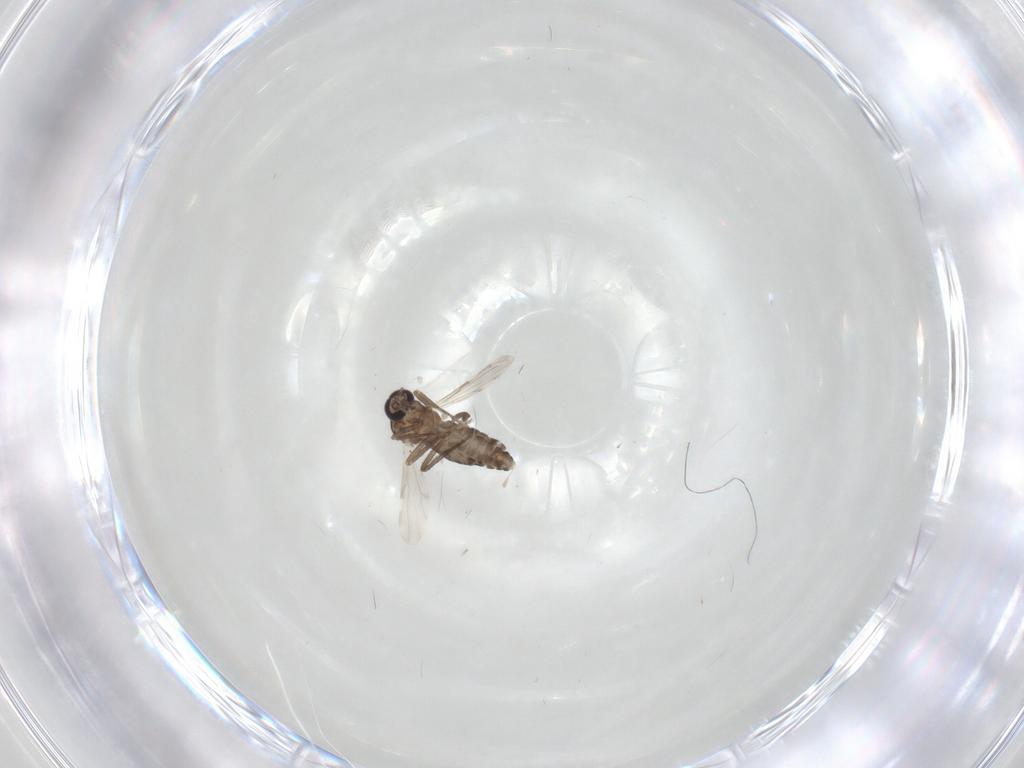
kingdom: Animalia
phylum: Arthropoda
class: Insecta
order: Diptera
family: Ceratopogonidae
